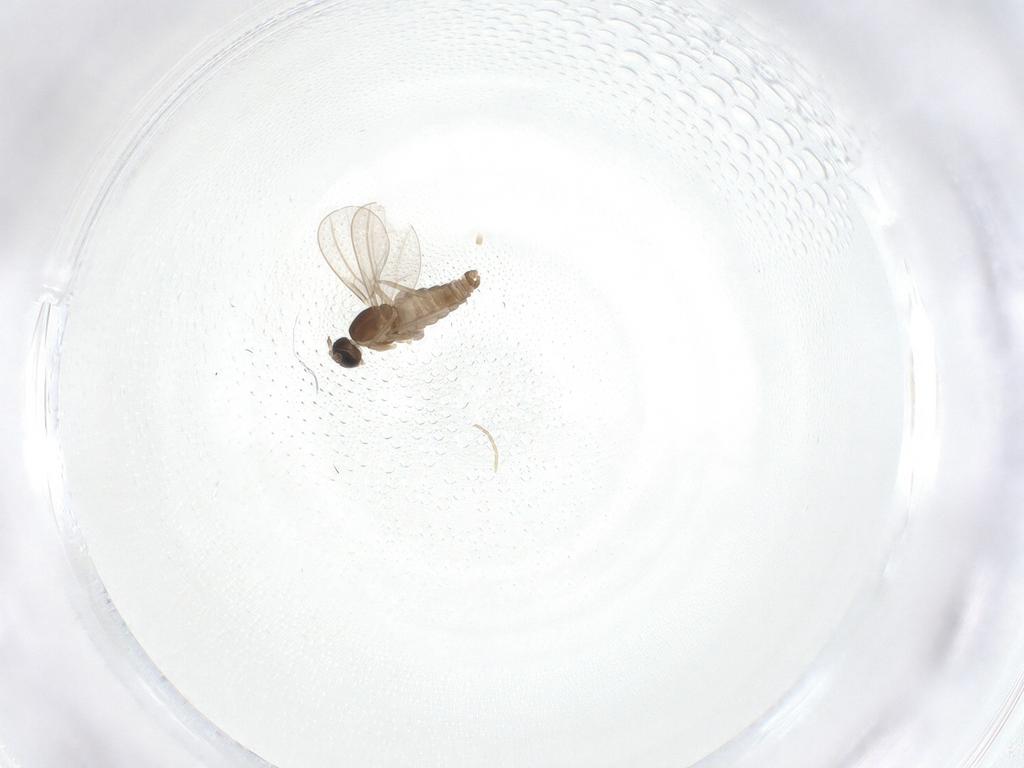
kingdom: Animalia
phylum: Arthropoda
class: Insecta
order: Diptera
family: Cecidomyiidae
